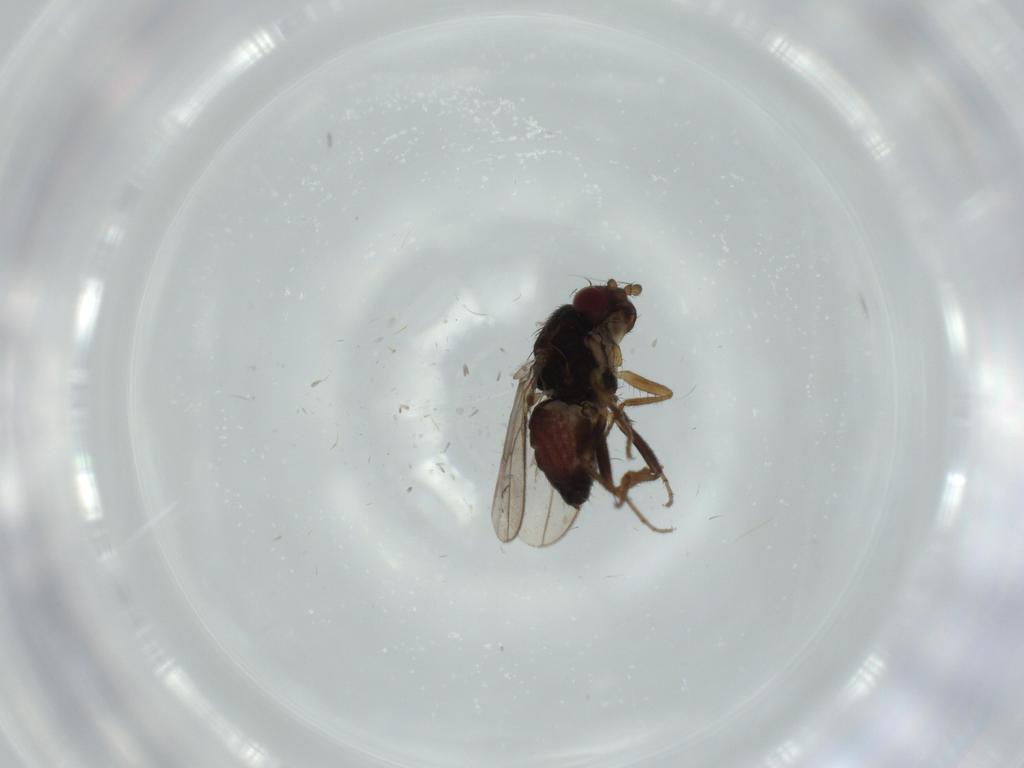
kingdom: Animalia
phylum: Arthropoda
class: Insecta
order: Diptera
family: Sphaeroceridae
